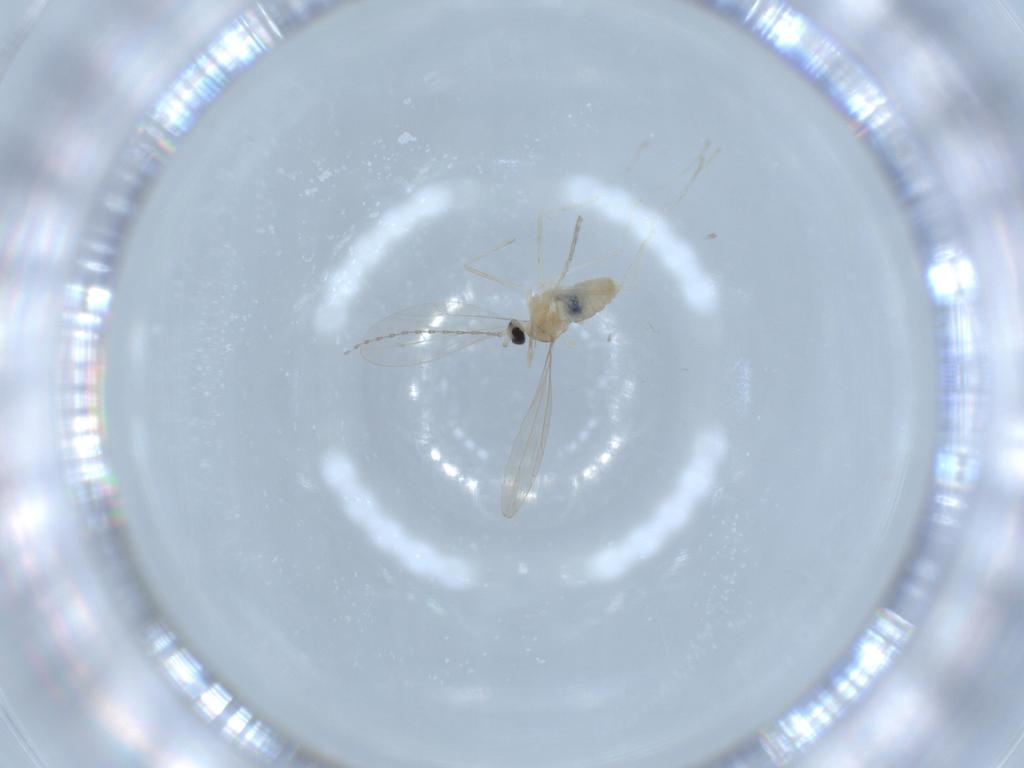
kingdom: Animalia
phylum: Arthropoda
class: Insecta
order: Diptera
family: Cecidomyiidae
